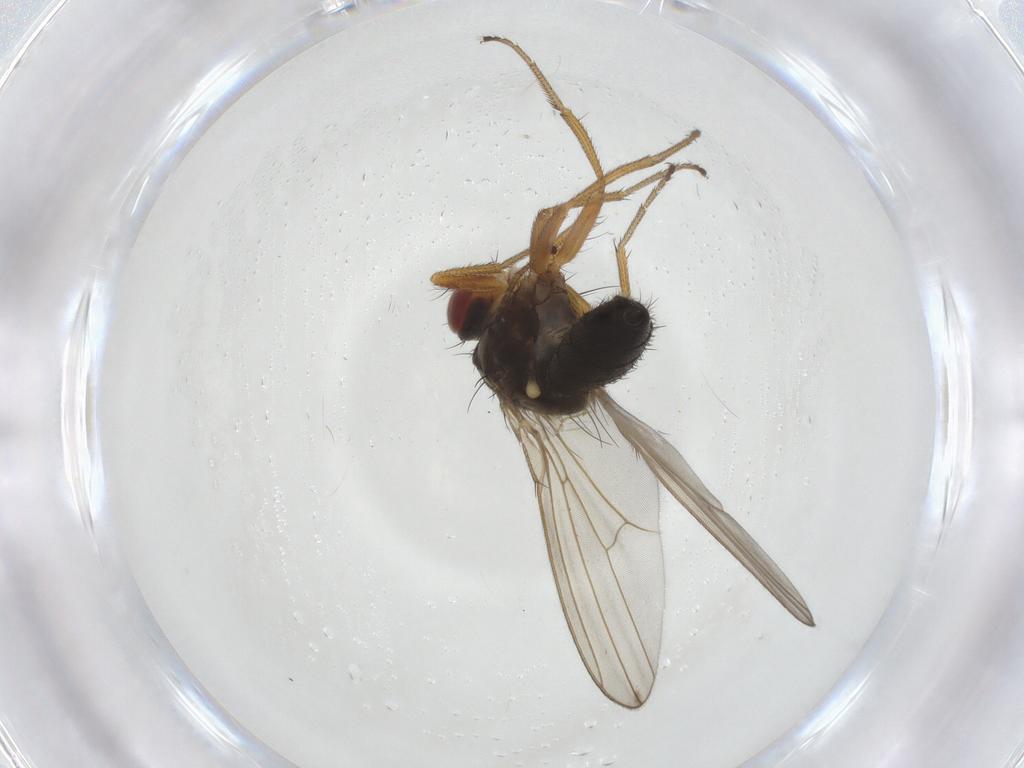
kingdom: Animalia
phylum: Arthropoda
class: Insecta
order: Diptera
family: Drosophilidae
